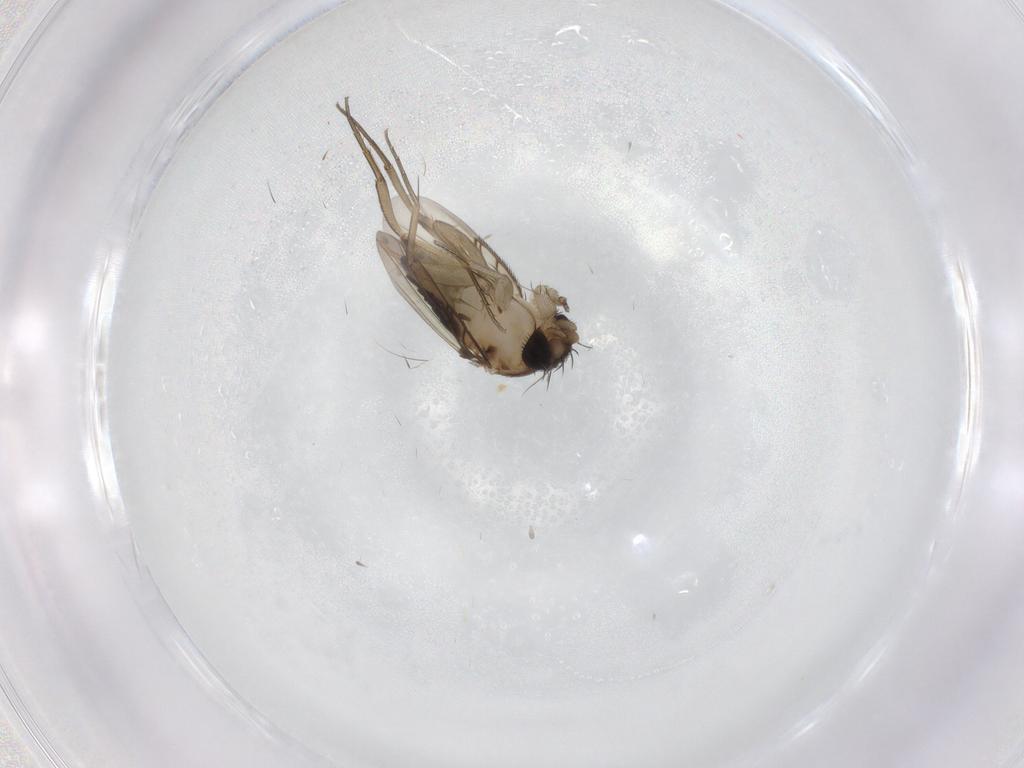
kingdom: Animalia
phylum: Arthropoda
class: Insecta
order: Diptera
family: Phoridae
